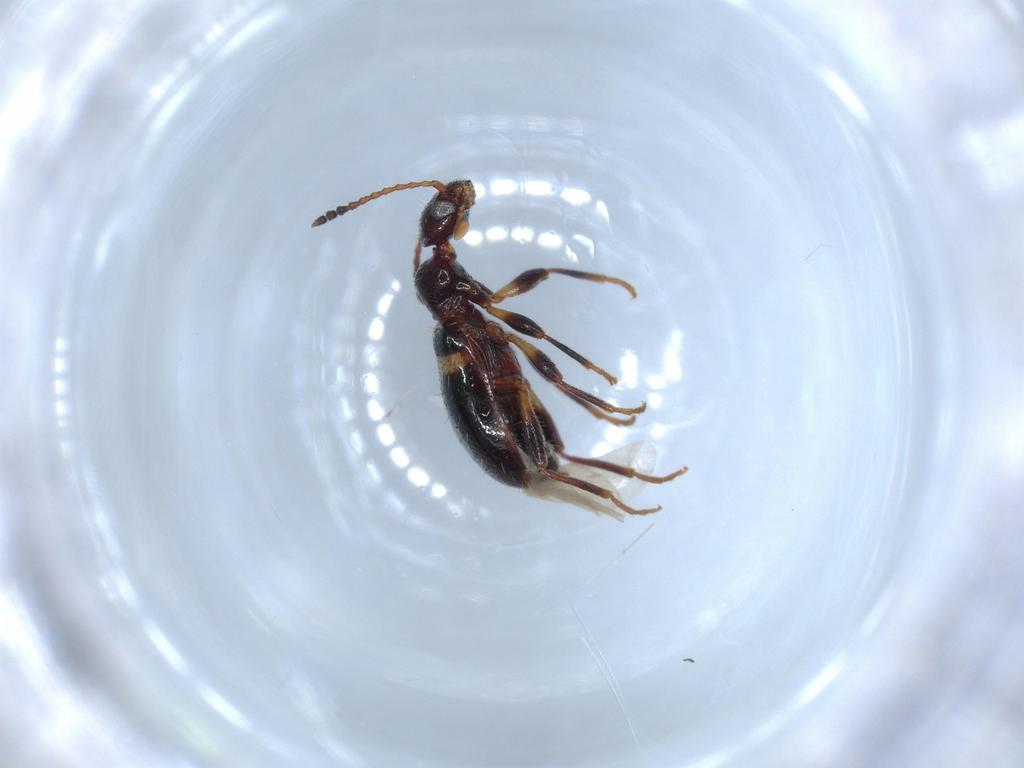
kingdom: Animalia
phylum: Arthropoda
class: Insecta
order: Coleoptera
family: Anthicidae
